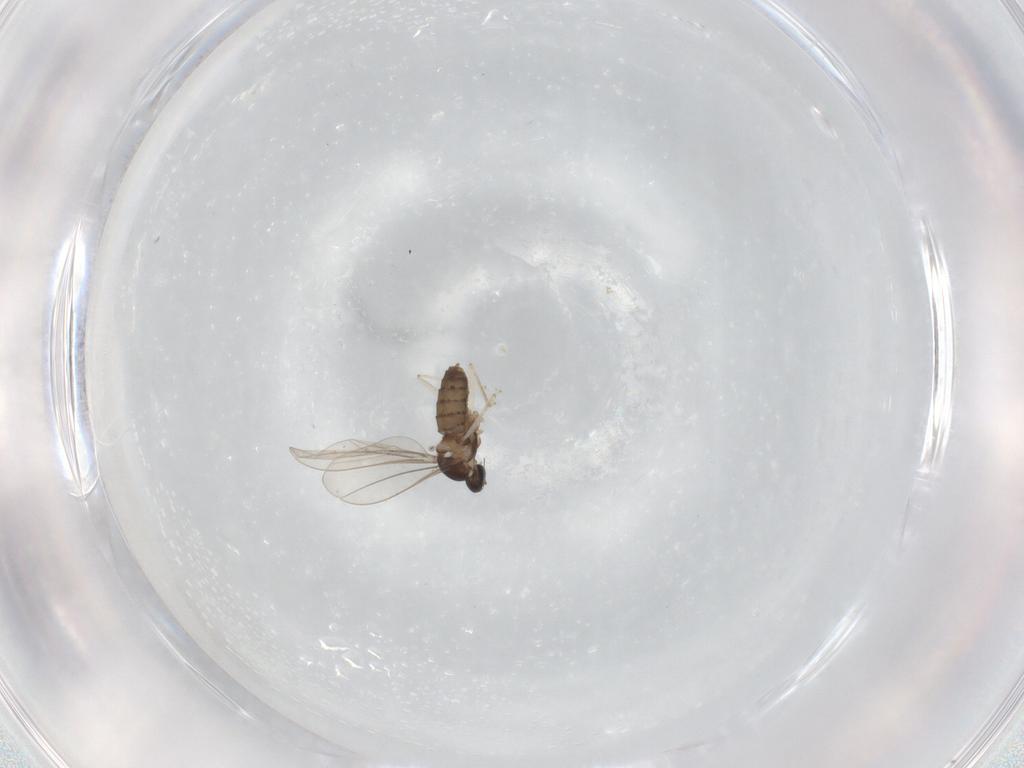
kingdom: Animalia
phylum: Arthropoda
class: Insecta
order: Diptera
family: Cecidomyiidae
